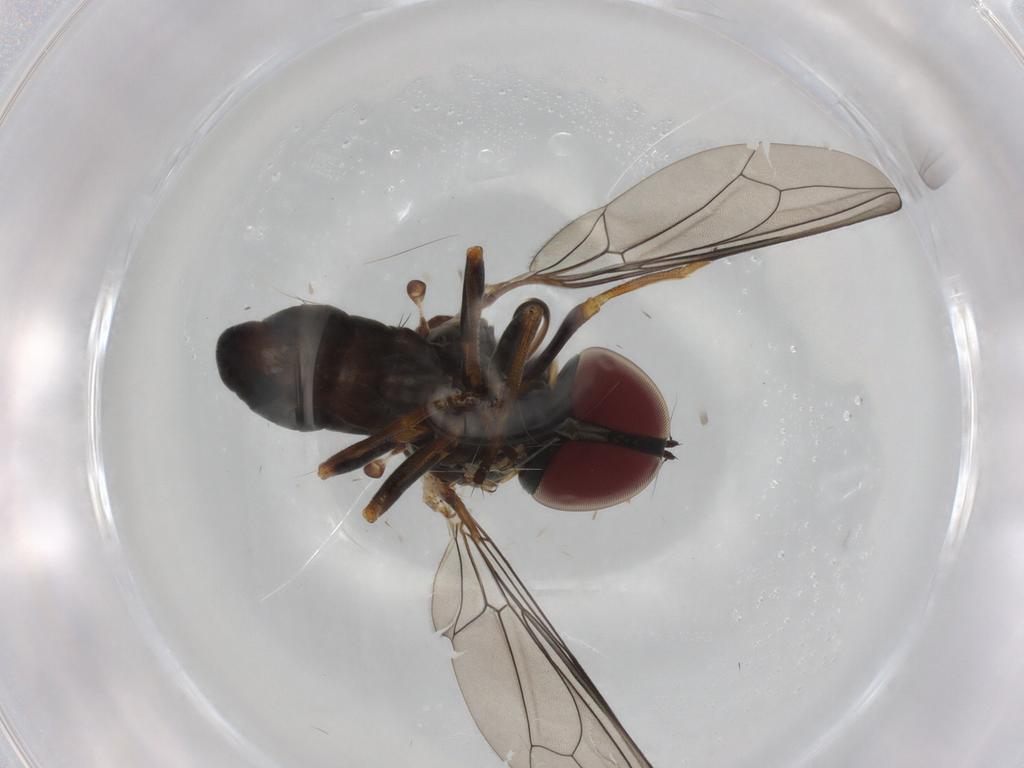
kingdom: Animalia
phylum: Arthropoda
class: Insecta
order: Diptera
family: Pipunculidae
